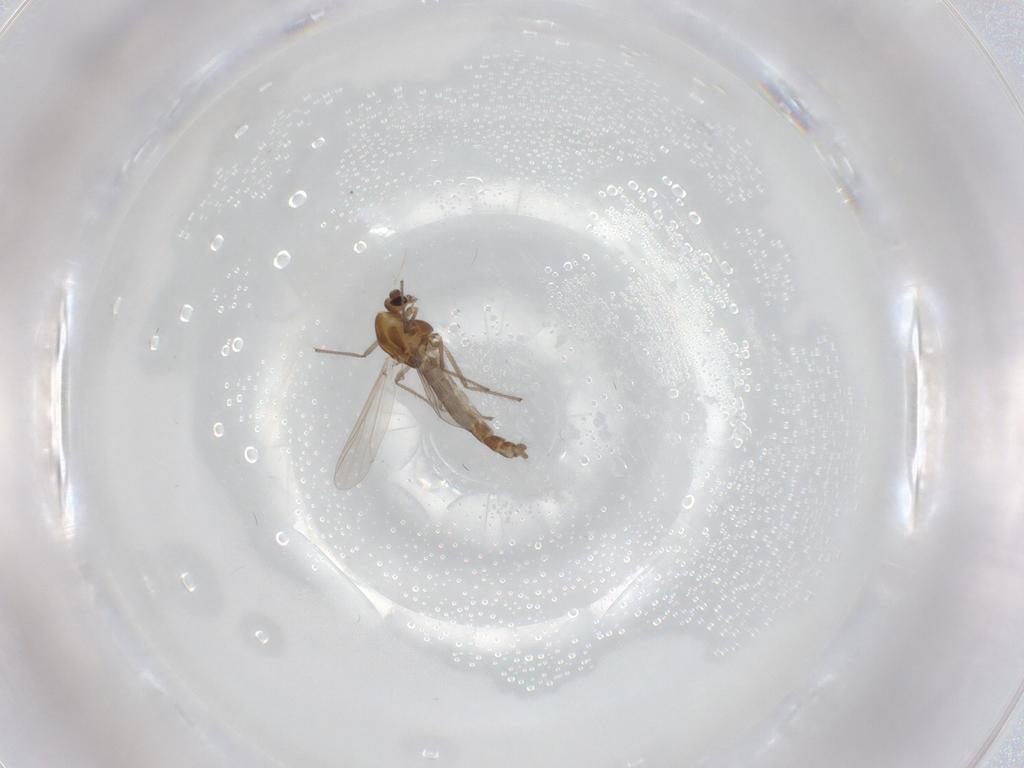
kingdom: Animalia
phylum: Arthropoda
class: Insecta
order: Diptera
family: Chironomidae
